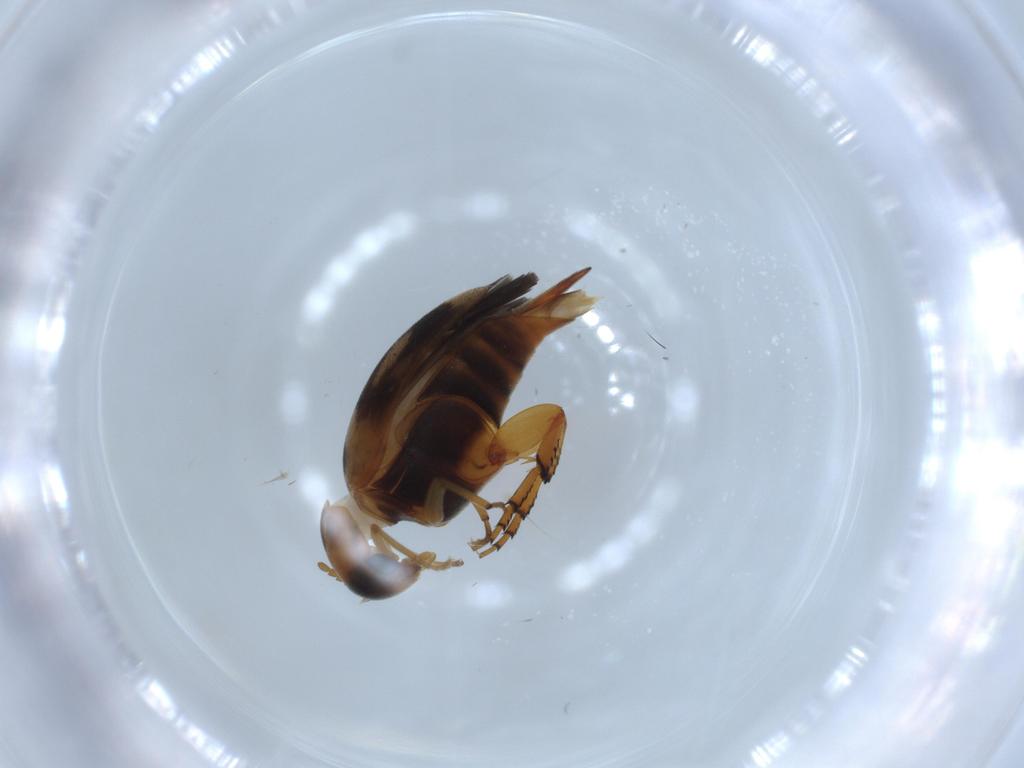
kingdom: Animalia
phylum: Arthropoda
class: Insecta
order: Coleoptera
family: Mordellidae
